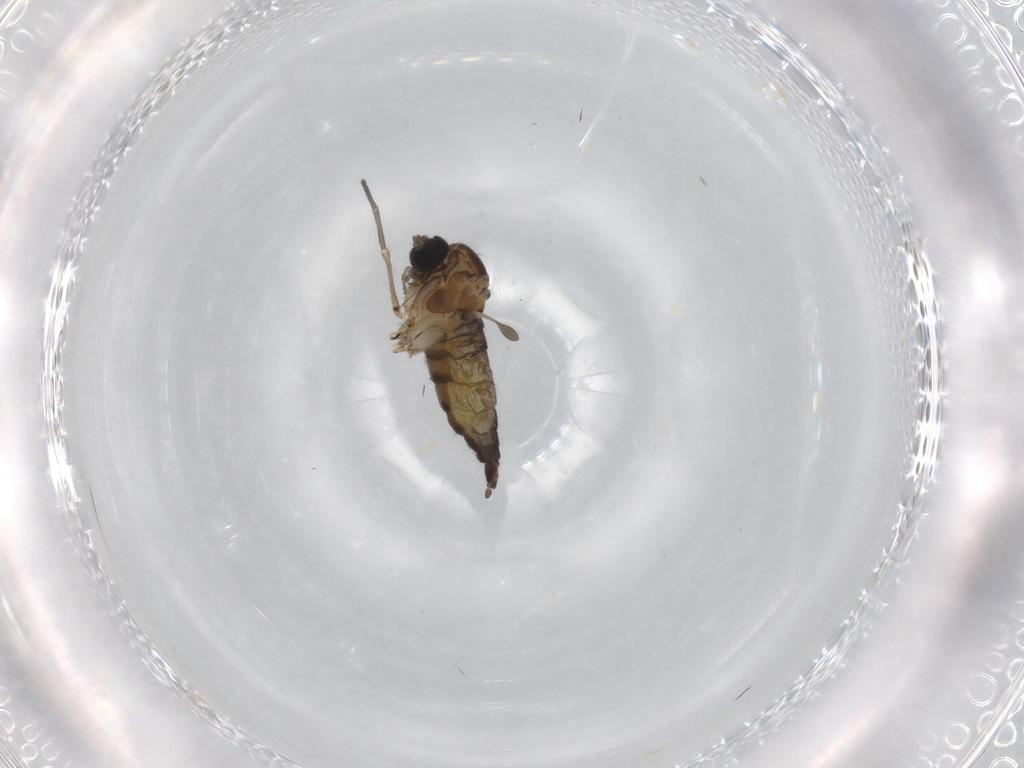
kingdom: Animalia
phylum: Arthropoda
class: Insecta
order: Diptera
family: Sciaridae
